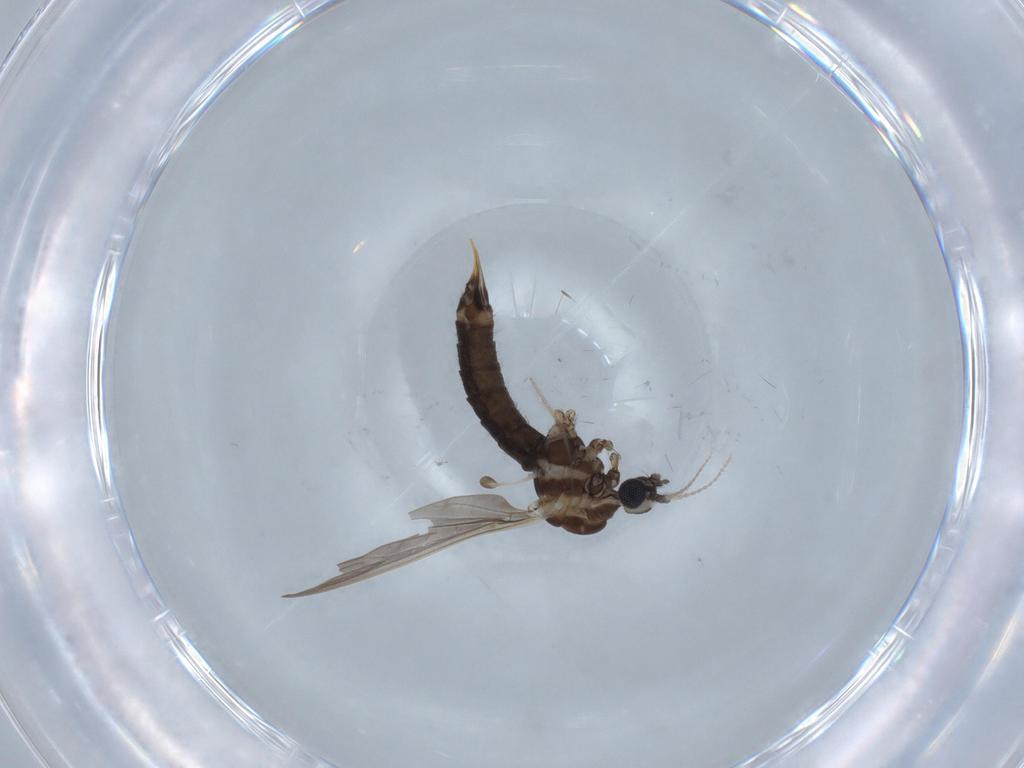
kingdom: Animalia
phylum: Arthropoda
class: Insecta
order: Diptera
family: Limoniidae
